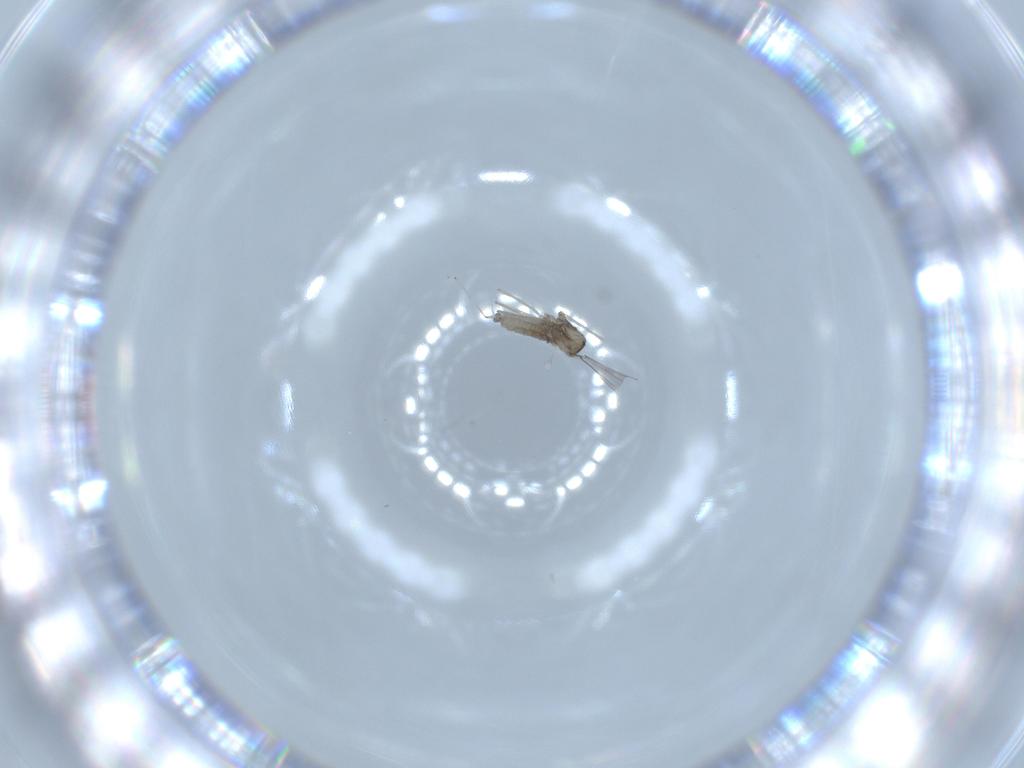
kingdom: Animalia
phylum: Arthropoda
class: Insecta
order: Diptera
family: Cecidomyiidae
